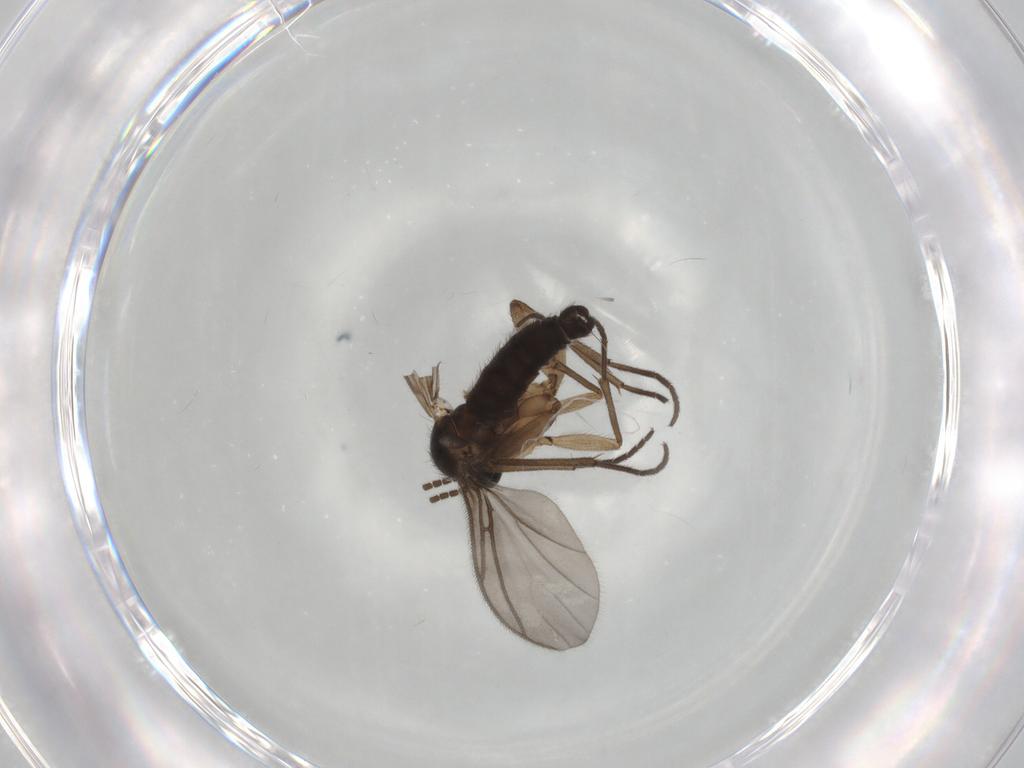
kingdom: Animalia
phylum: Arthropoda
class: Insecta
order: Diptera
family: Sciaridae
